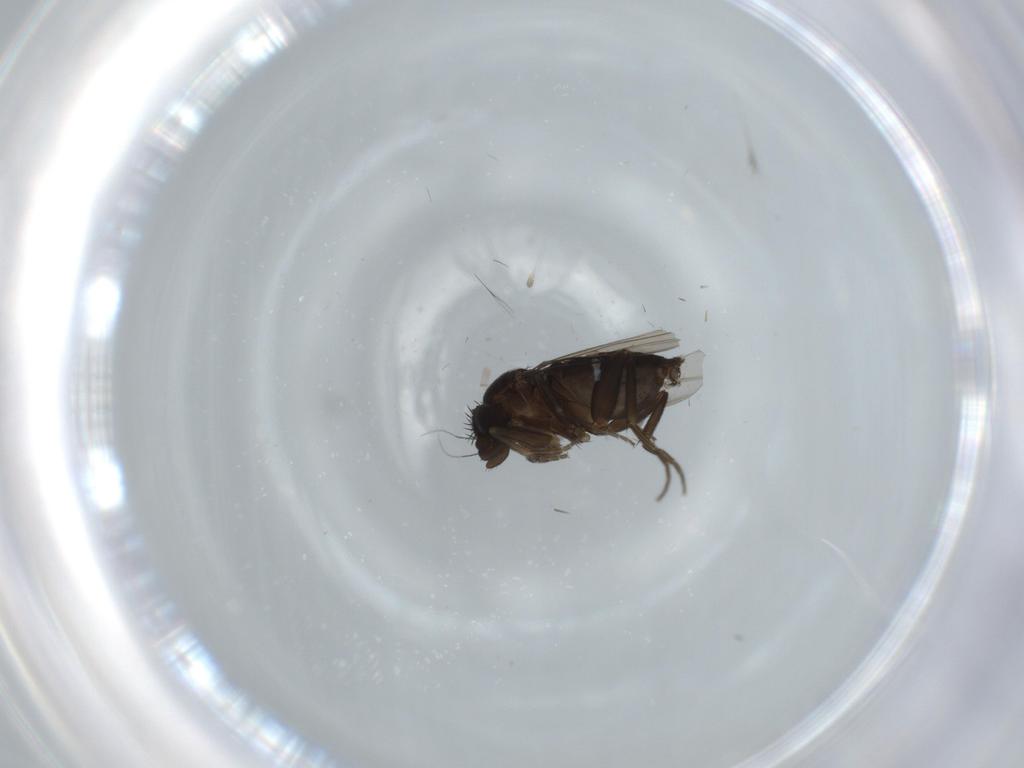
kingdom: Animalia
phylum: Arthropoda
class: Insecta
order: Diptera
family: Phoridae
